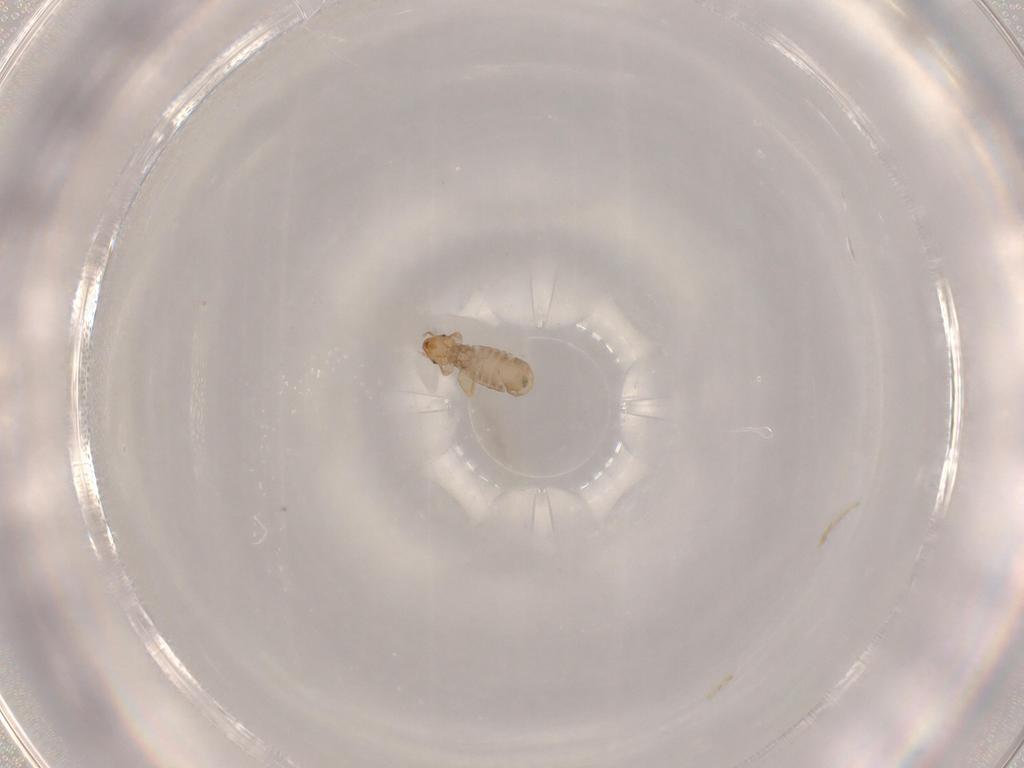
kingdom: Animalia
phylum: Arthropoda
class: Insecta
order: Psocodea
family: Liposcelididae
